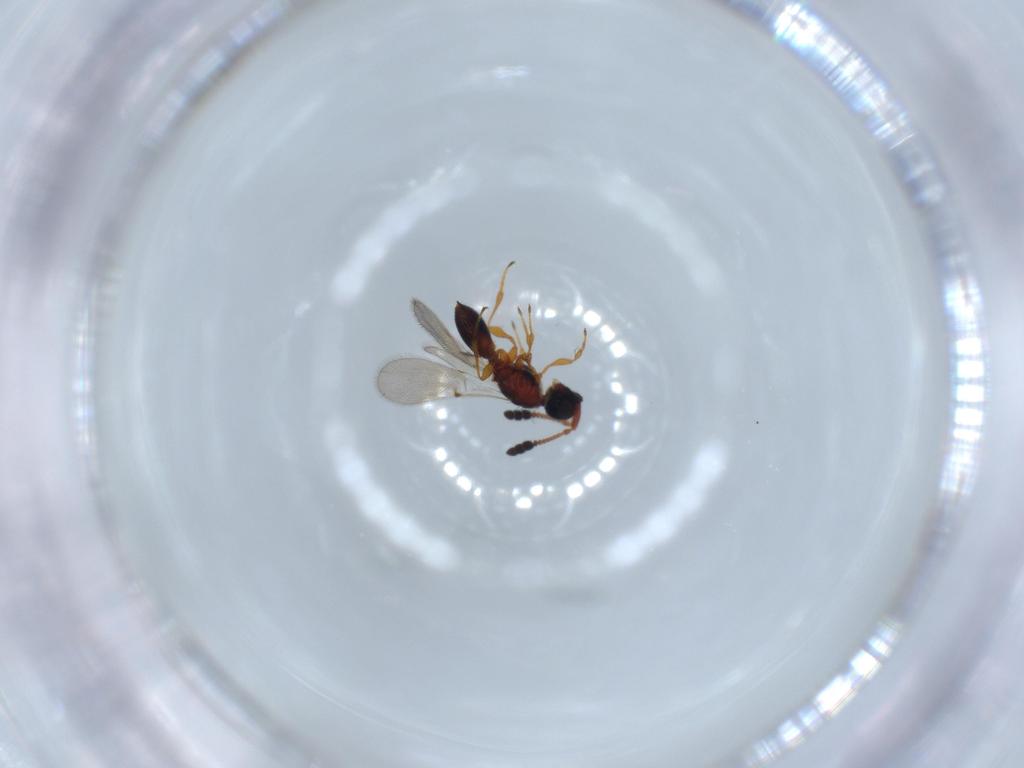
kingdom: Animalia
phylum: Arthropoda
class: Insecta
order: Hymenoptera
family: Diapriidae
